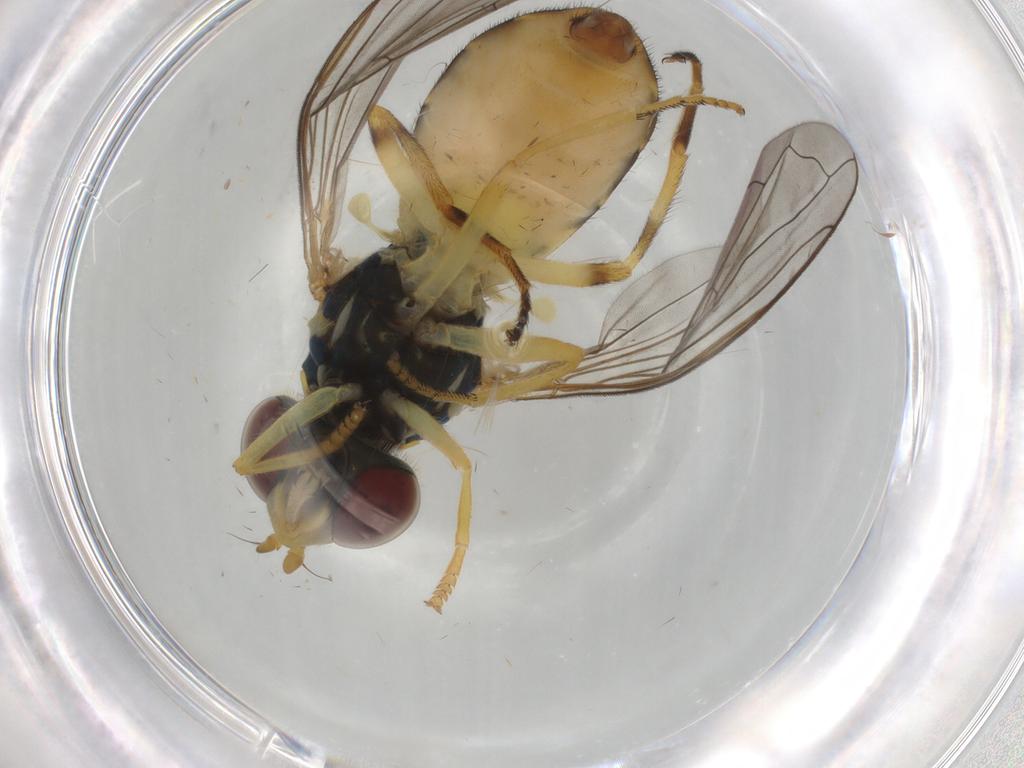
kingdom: Animalia
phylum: Arthropoda
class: Insecta
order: Diptera
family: Syrphidae
